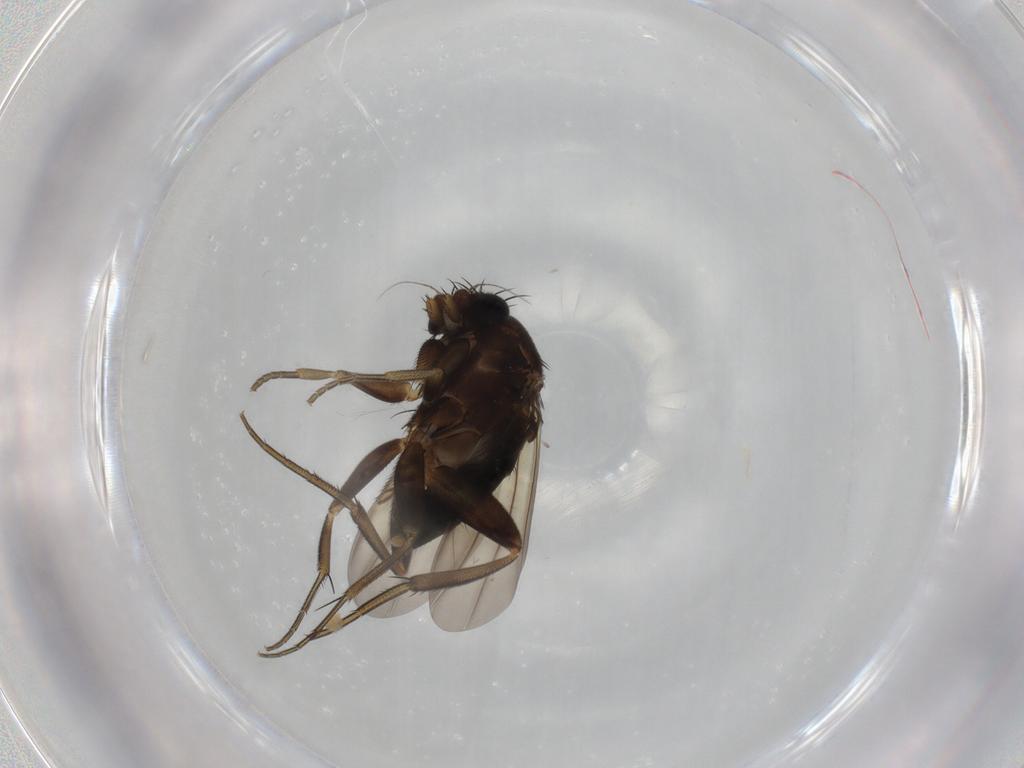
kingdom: Animalia
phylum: Arthropoda
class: Insecta
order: Diptera
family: Phoridae
